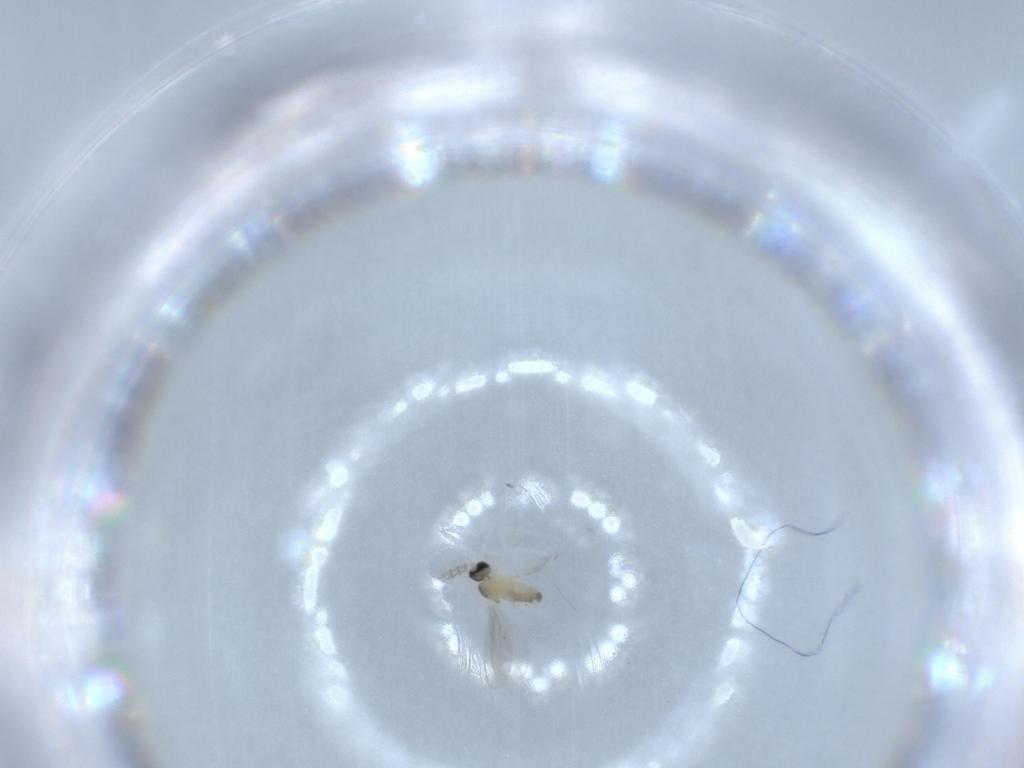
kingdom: Animalia
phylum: Arthropoda
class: Insecta
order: Diptera
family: Cecidomyiidae
